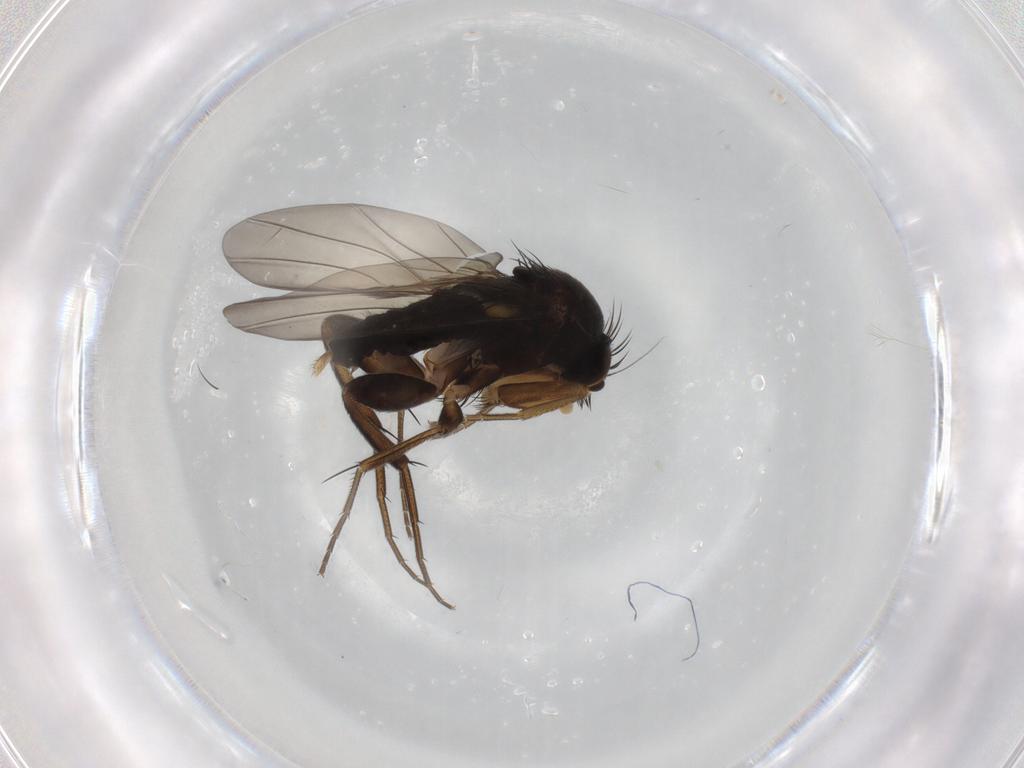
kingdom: Animalia
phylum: Arthropoda
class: Insecta
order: Diptera
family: Phoridae
